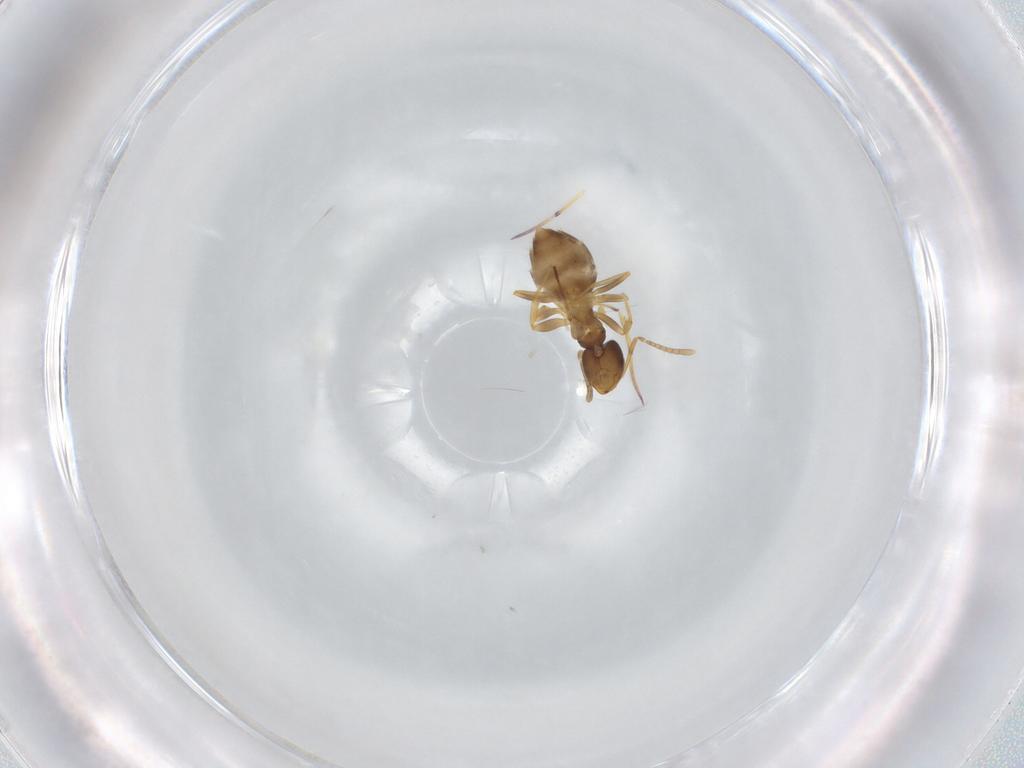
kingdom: Animalia
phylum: Arthropoda
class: Insecta
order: Hymenoptera
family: Formicidae
